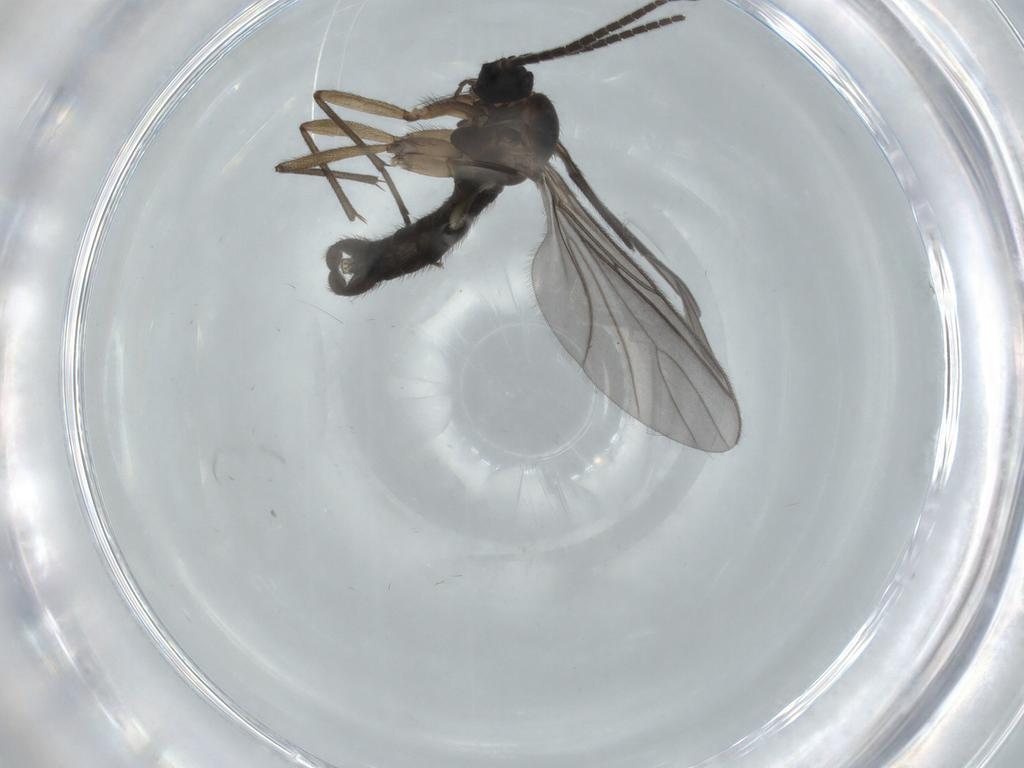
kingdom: Animalia
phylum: Arthropoda
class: Insecta
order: Diptera
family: Sciaridae
